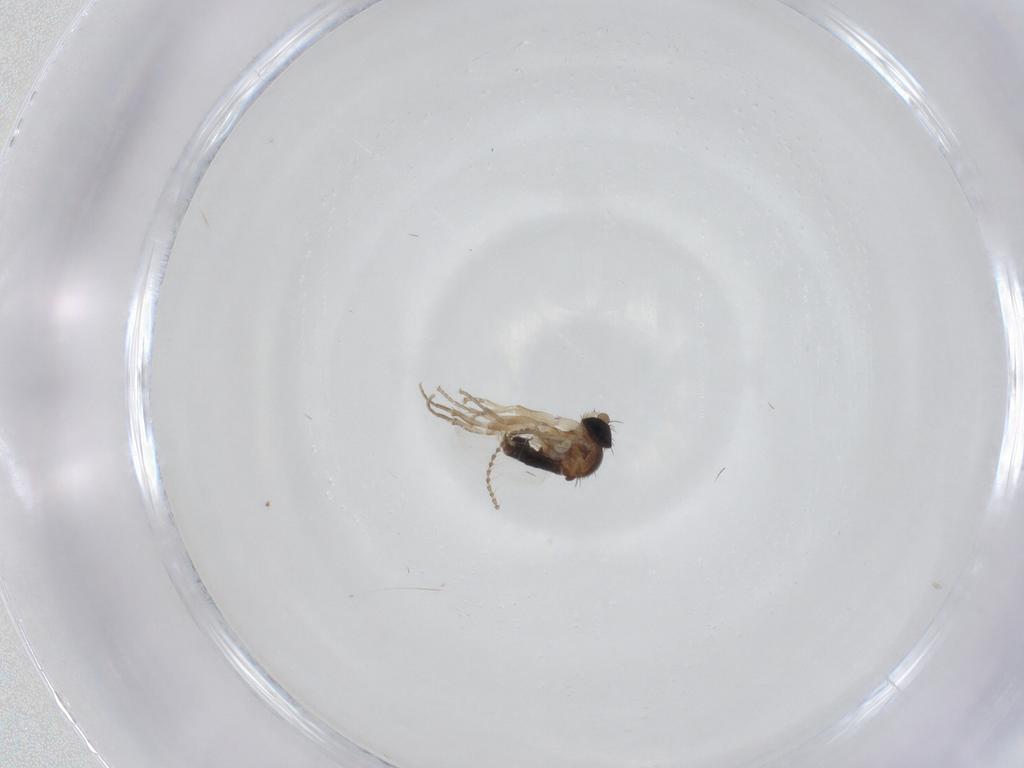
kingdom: Animalia
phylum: Arthropoda
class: Insecta
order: Diptera
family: Cecidomyiidae
